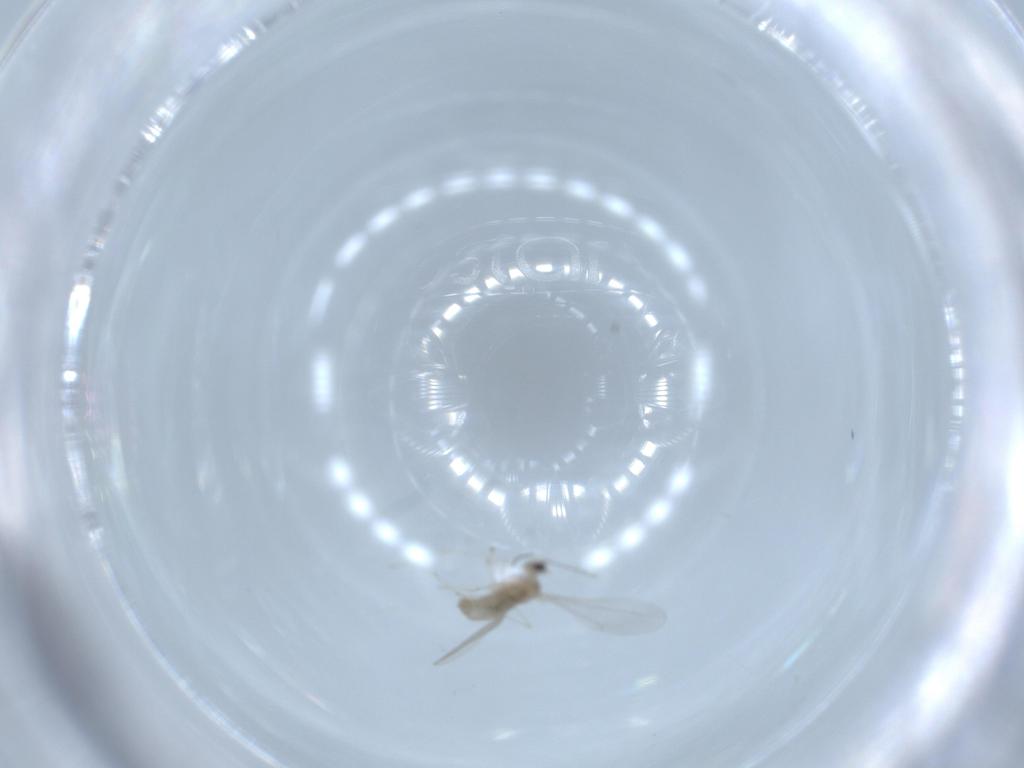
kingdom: Animalia
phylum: Arthropoda
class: Insecta
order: Diptera
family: Cecidomyiidae
